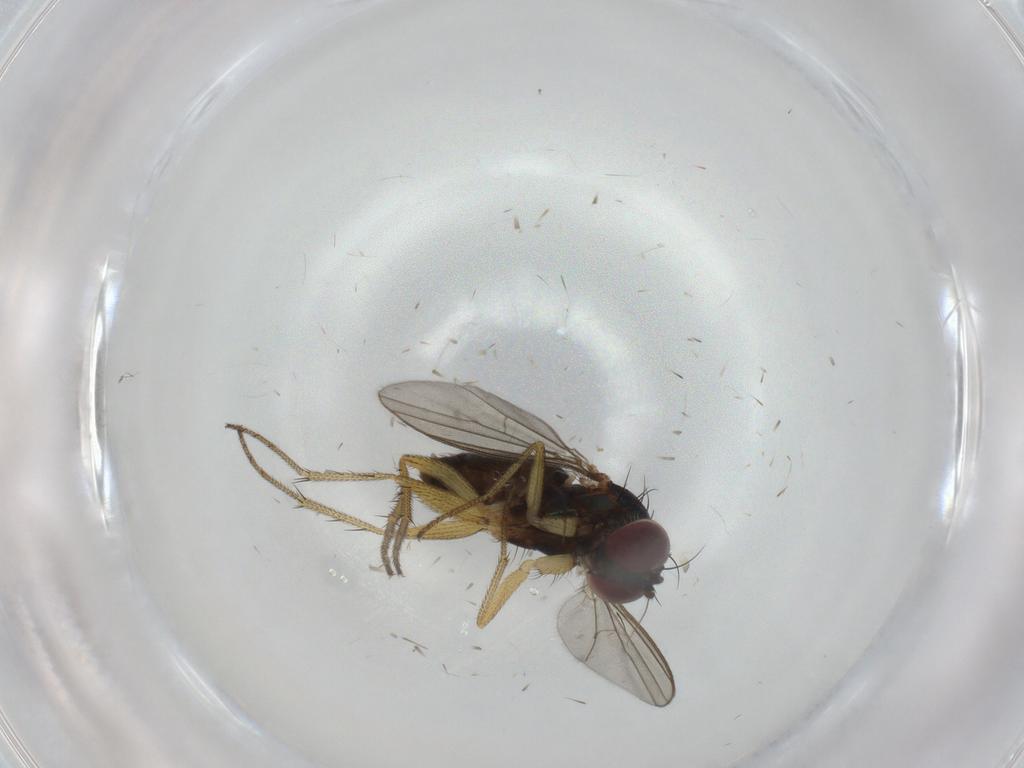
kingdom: Animalia
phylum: Arthropoda
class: Insecta
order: Diptera
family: Dolichopodidae
